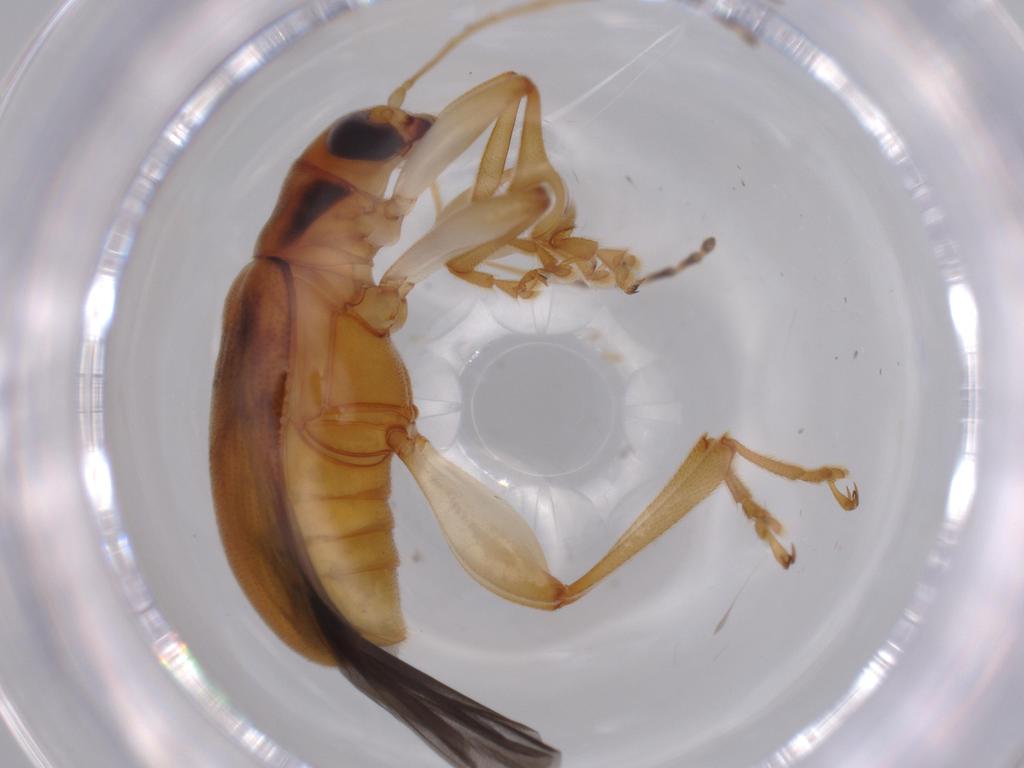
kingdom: Animalia
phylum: Arthropoda
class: Insecta
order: Coleoptera
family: Chrysomelidae
